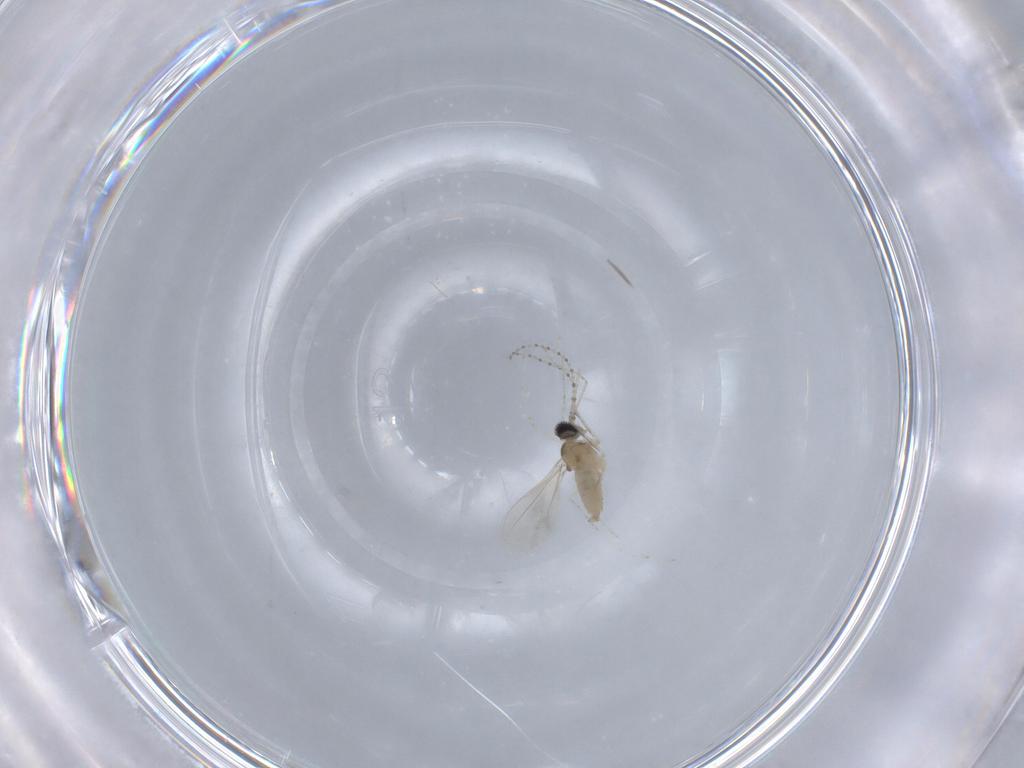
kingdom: Animalia
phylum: Arthropoda
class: Insecta
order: Diptera
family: Cecidomyiidae
